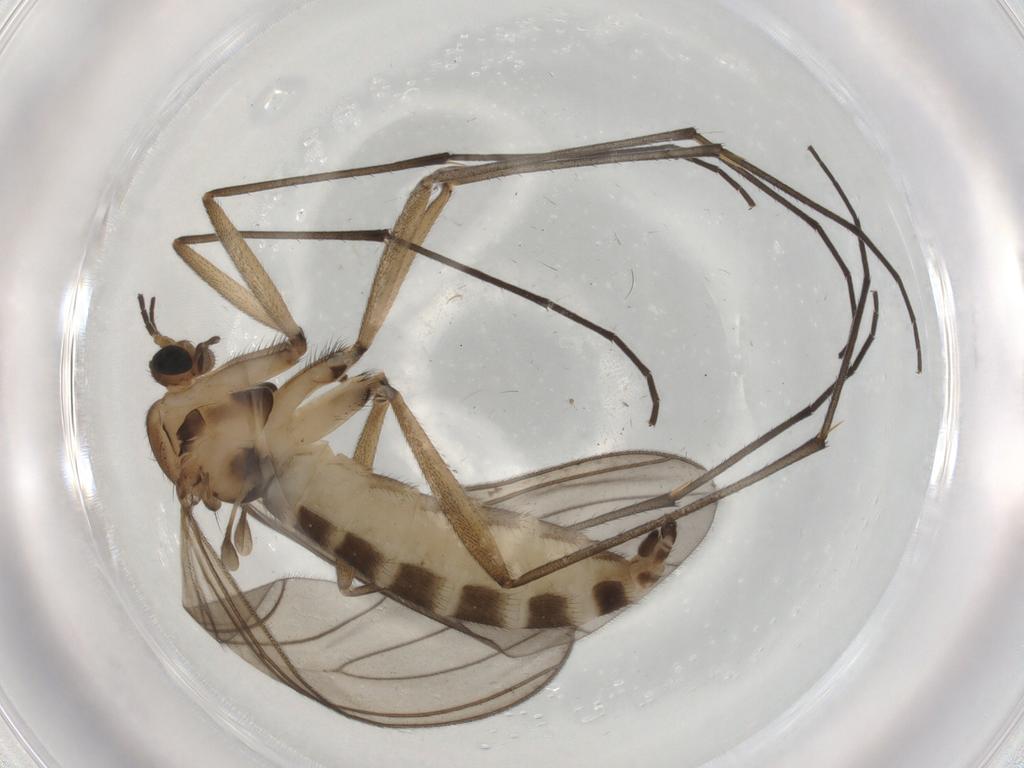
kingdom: Animalia
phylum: Arthropoda
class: Insecta
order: Diptera
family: Sciaridae
